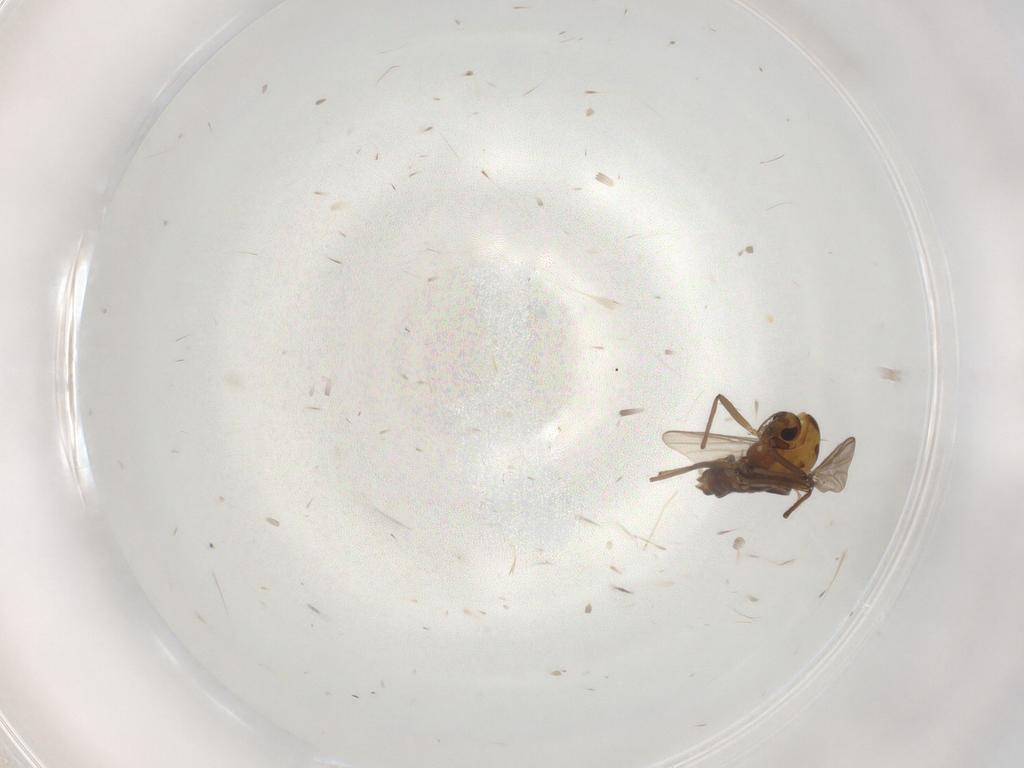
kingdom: Animalia
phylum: Arthropoda
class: Insecta
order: Diptera
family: Chironomidae
